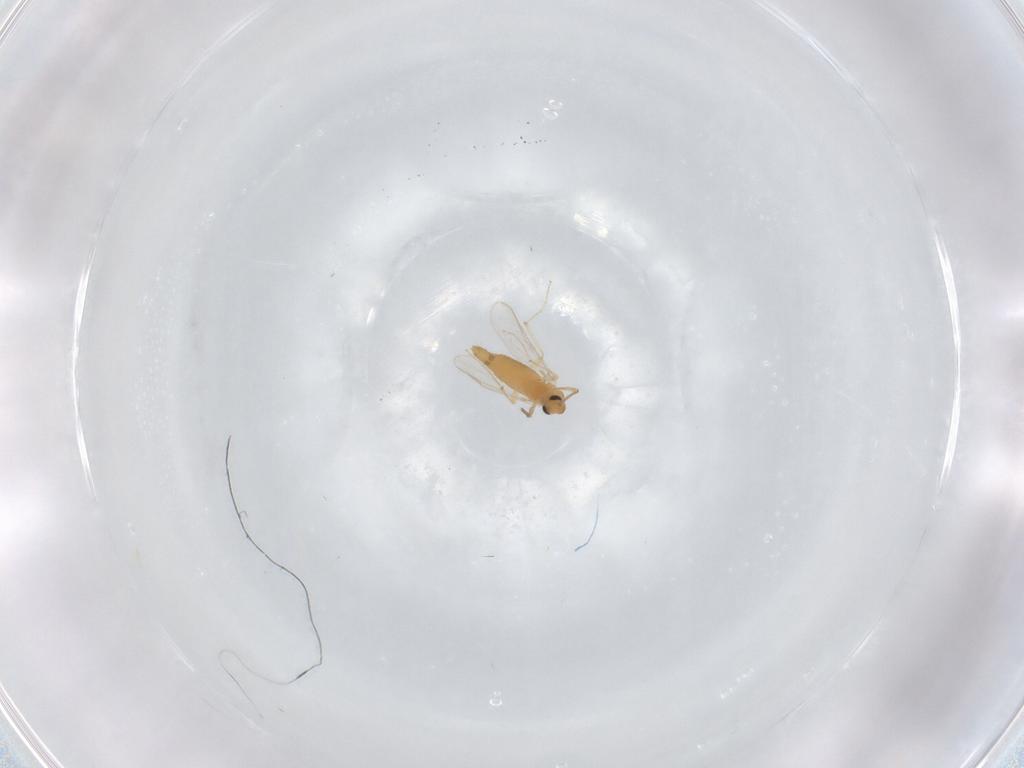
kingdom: Animalia
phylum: Arthropoda
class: Insecta
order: Diptera
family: Chironomidae
